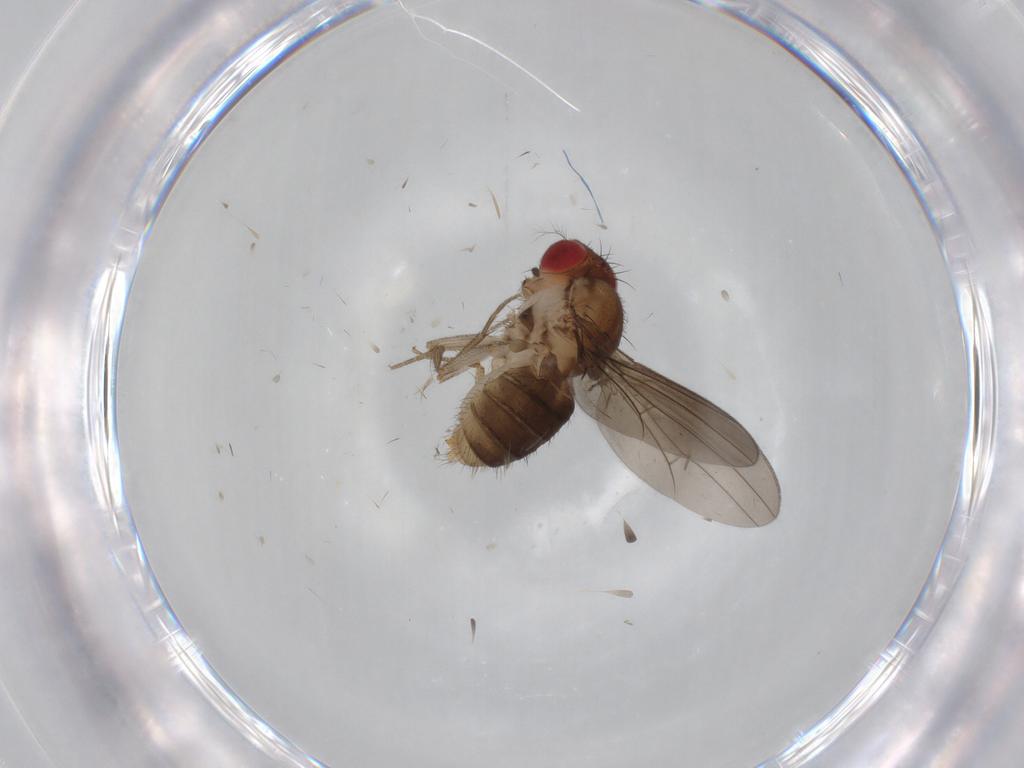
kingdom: Animalia
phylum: Arthropoda
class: Insecta
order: Diptera
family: Drosophilidae
